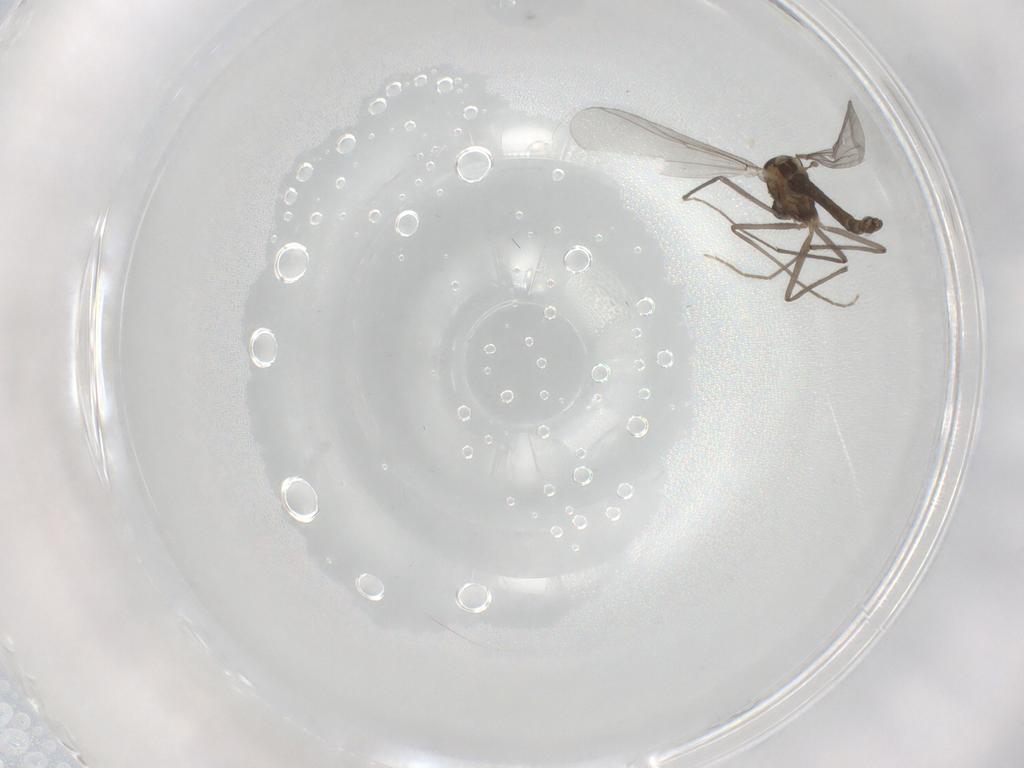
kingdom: Animalia
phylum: Arthropoda
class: Insecta
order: Diptera
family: Chironomidae
